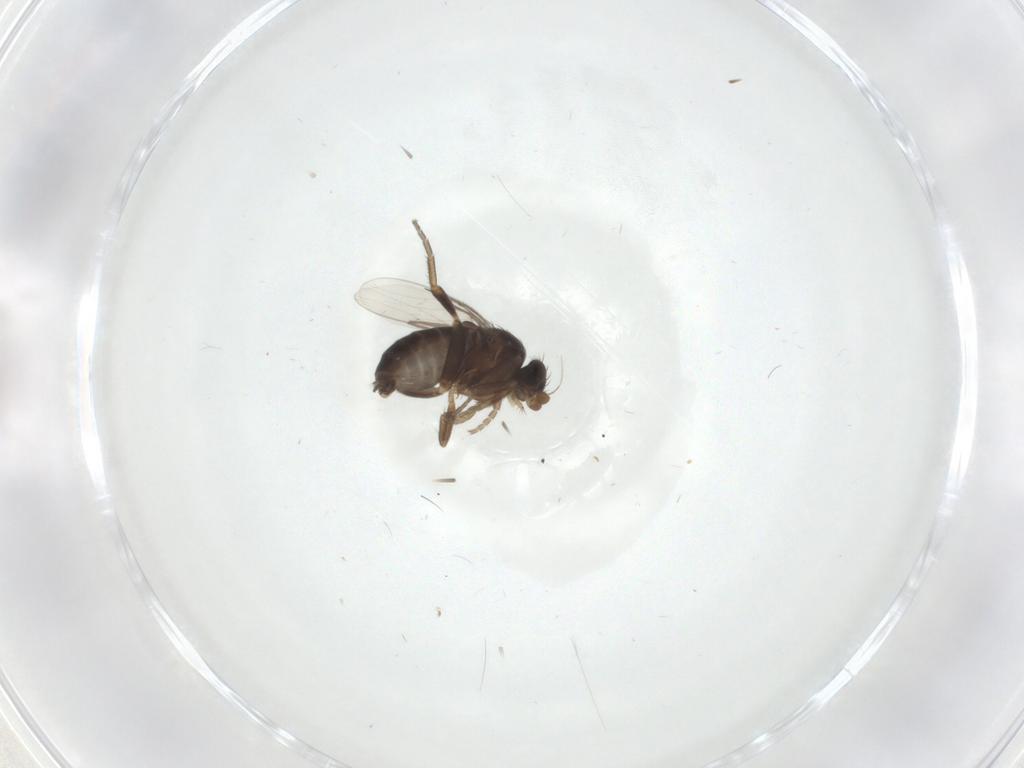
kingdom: Animalia
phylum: Arthropoda
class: Insecta
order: Diptera
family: Phoridae
